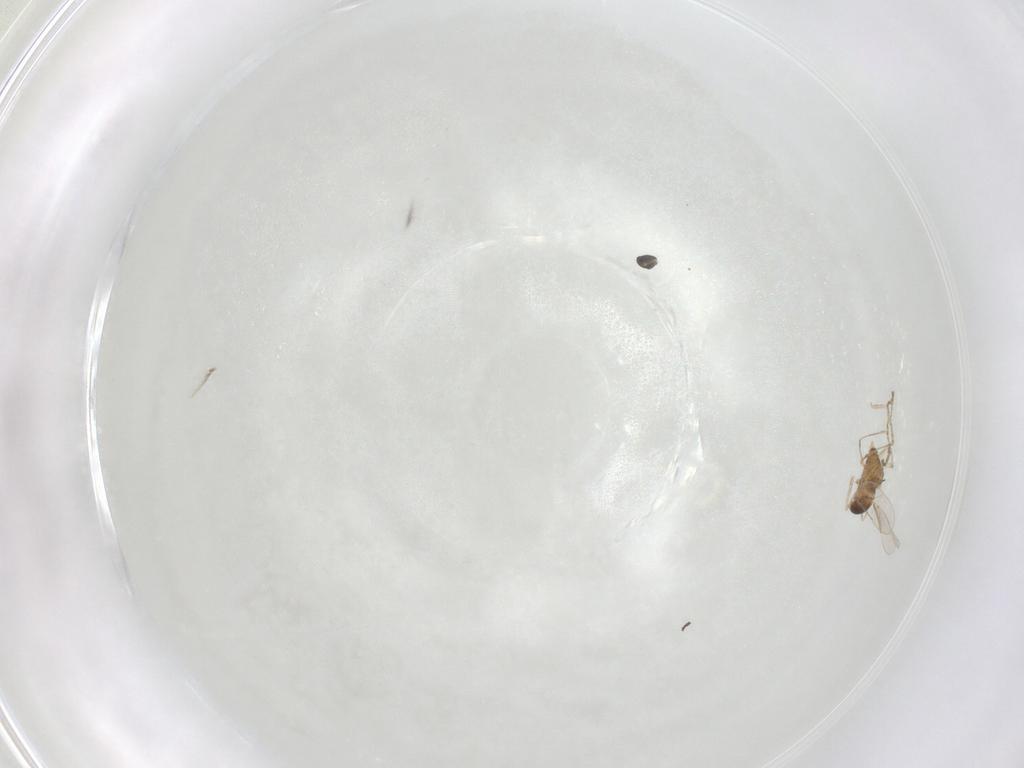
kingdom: Animalia
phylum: Arthropoda
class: Insecta
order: Diptera
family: Cecidomyiidae
